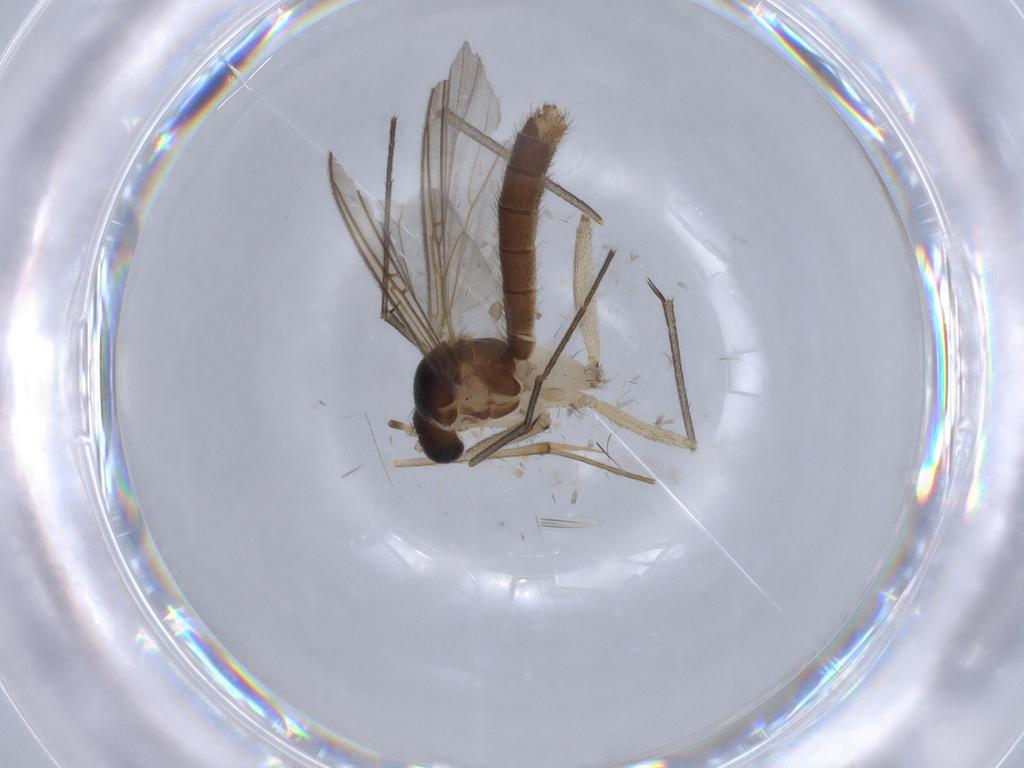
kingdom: Animalia
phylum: Arthropoda
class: Insecta
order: Diptera
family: Mycetophilidae
